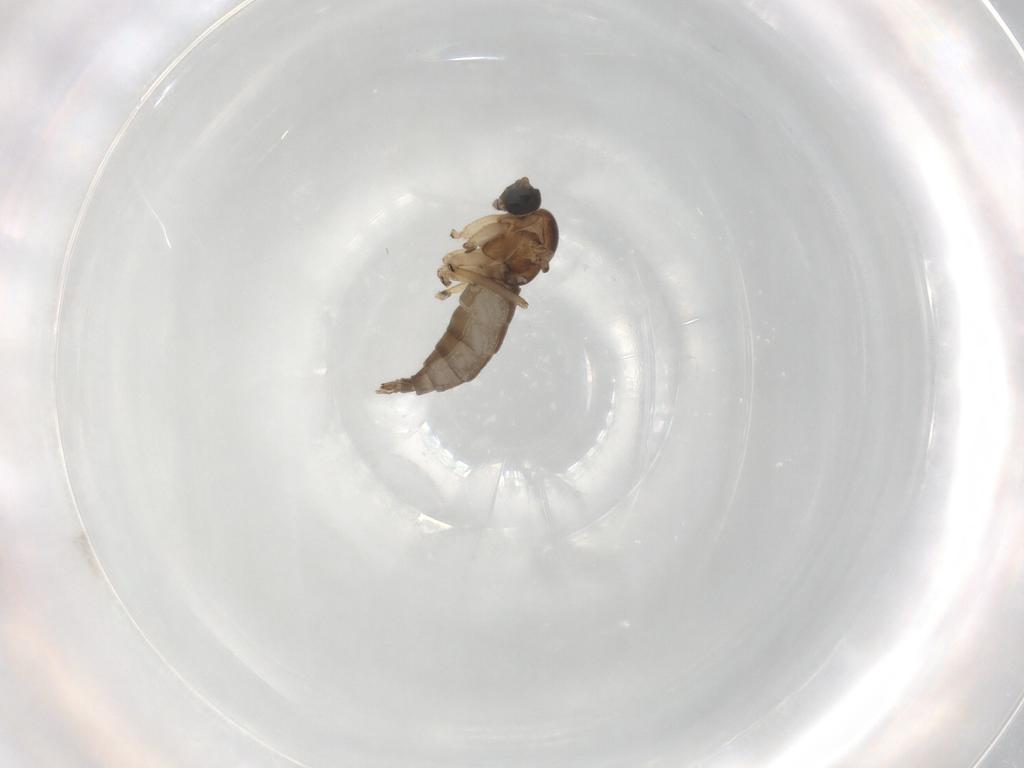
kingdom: Animalia
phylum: Arthropoda
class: Insecta
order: Diptera
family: Sciaridae
